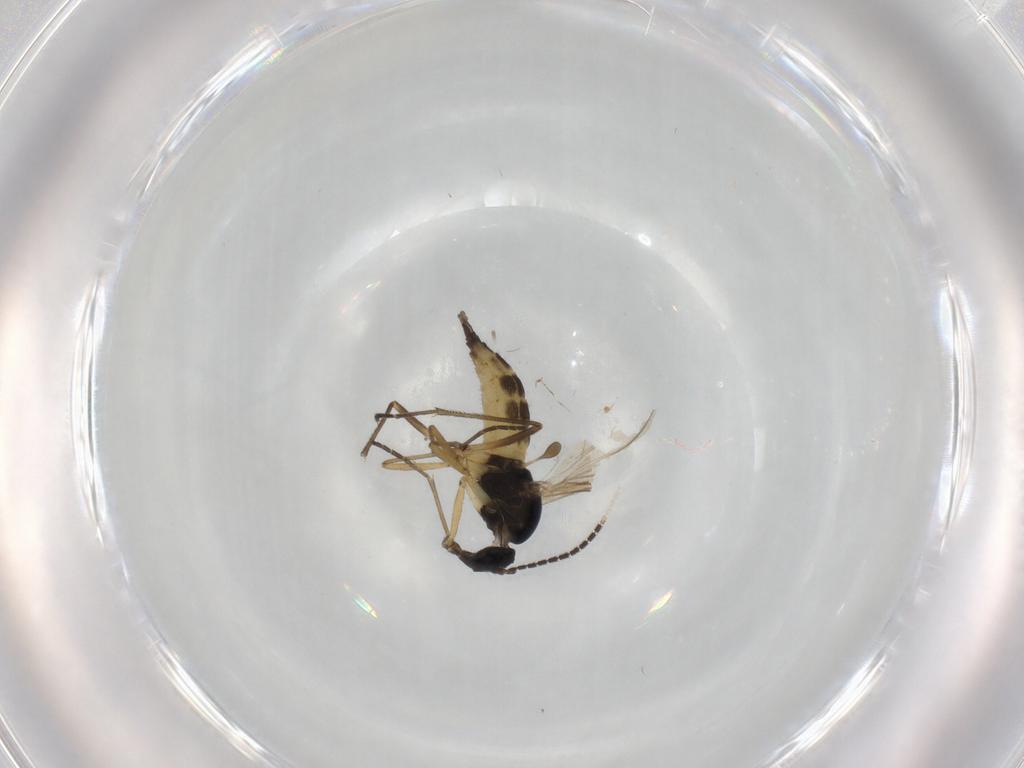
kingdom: Animalia
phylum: Arthropoda
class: Insecta
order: Diptera
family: Sciaridae
